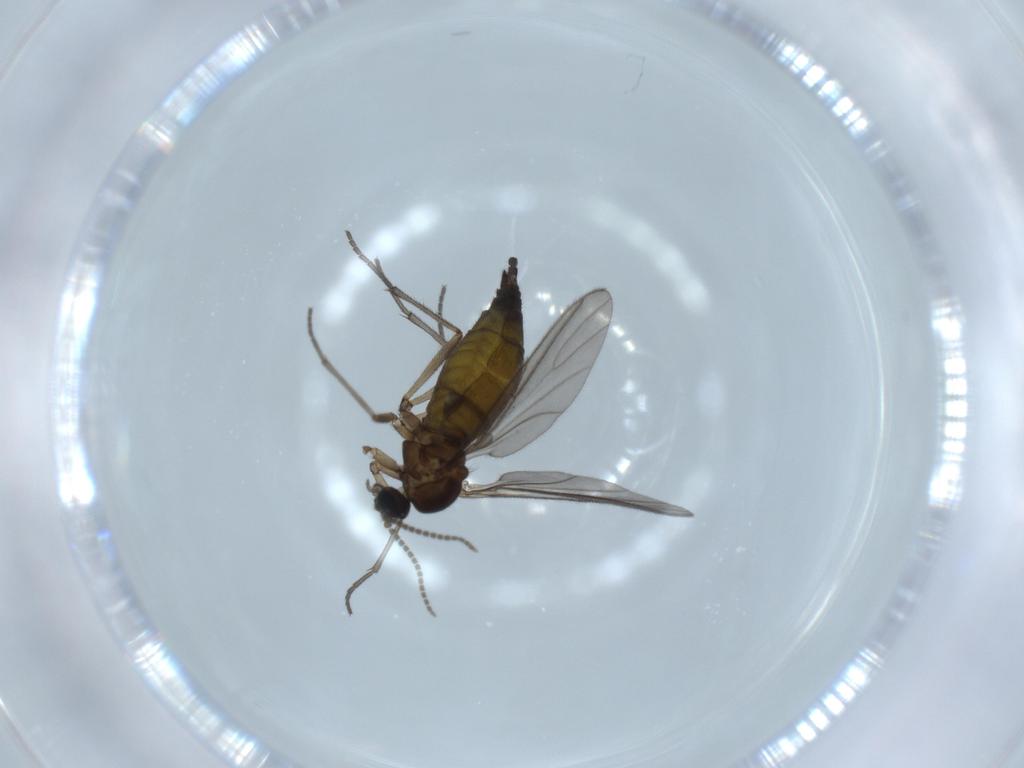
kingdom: Animalia
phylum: Arthropoda
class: Insecta
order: Diptera
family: Sciaridae
